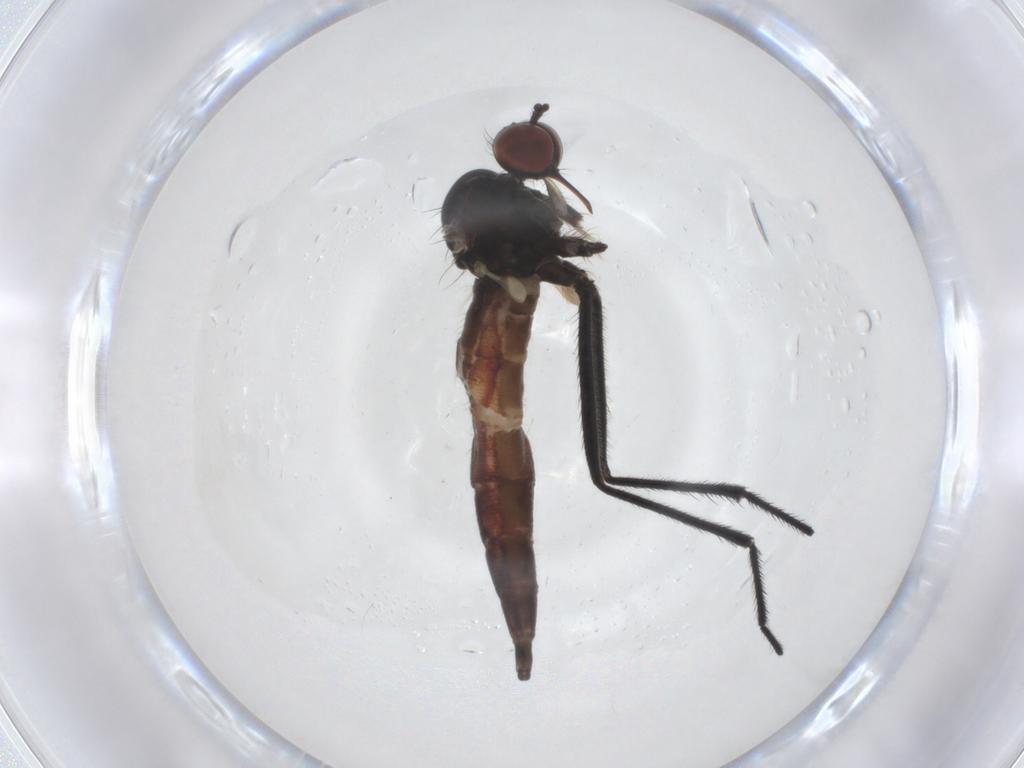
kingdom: Animalia
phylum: Arthropoda
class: Insecta
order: Diptera
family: Empididae
